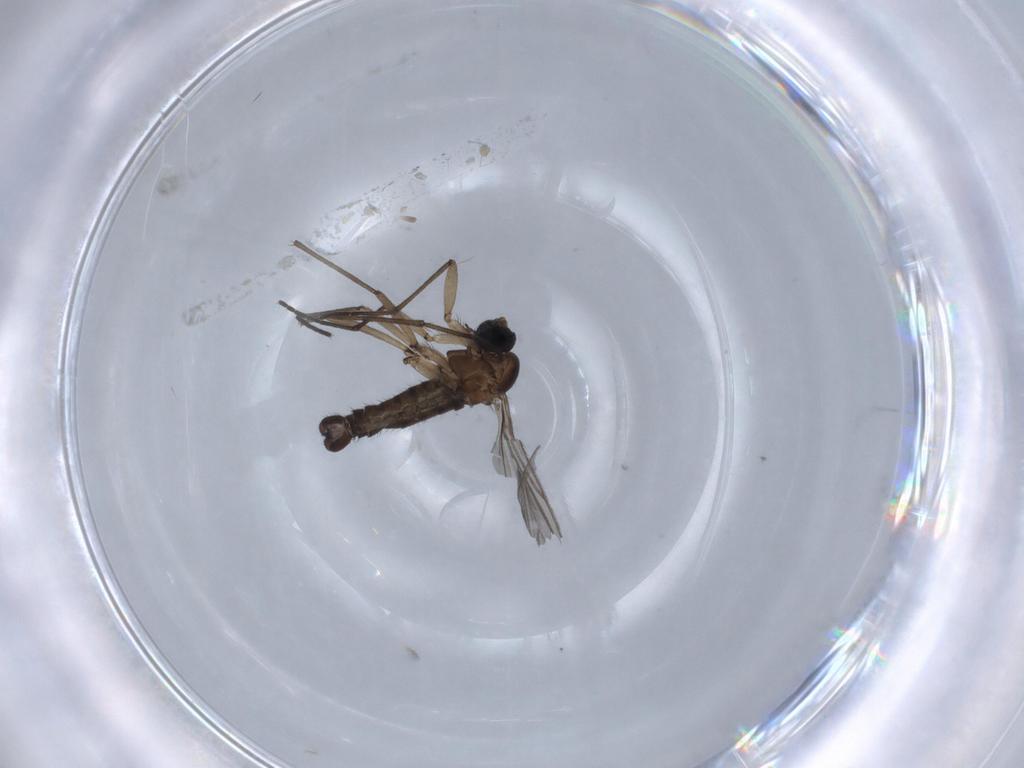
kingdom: Animalia
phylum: Arthropoda
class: Insecta
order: Diptera
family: Sciaridae
